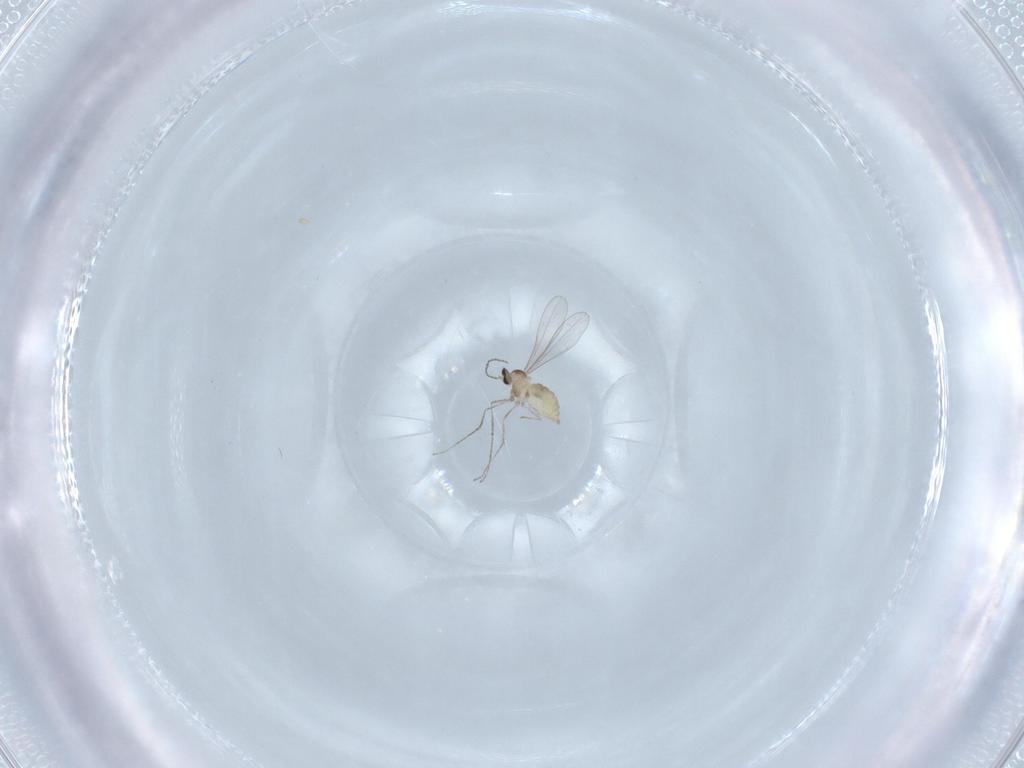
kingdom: Animalia
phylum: Arthropoda
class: Insecta
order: Diptera
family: Cecidomyiidae
